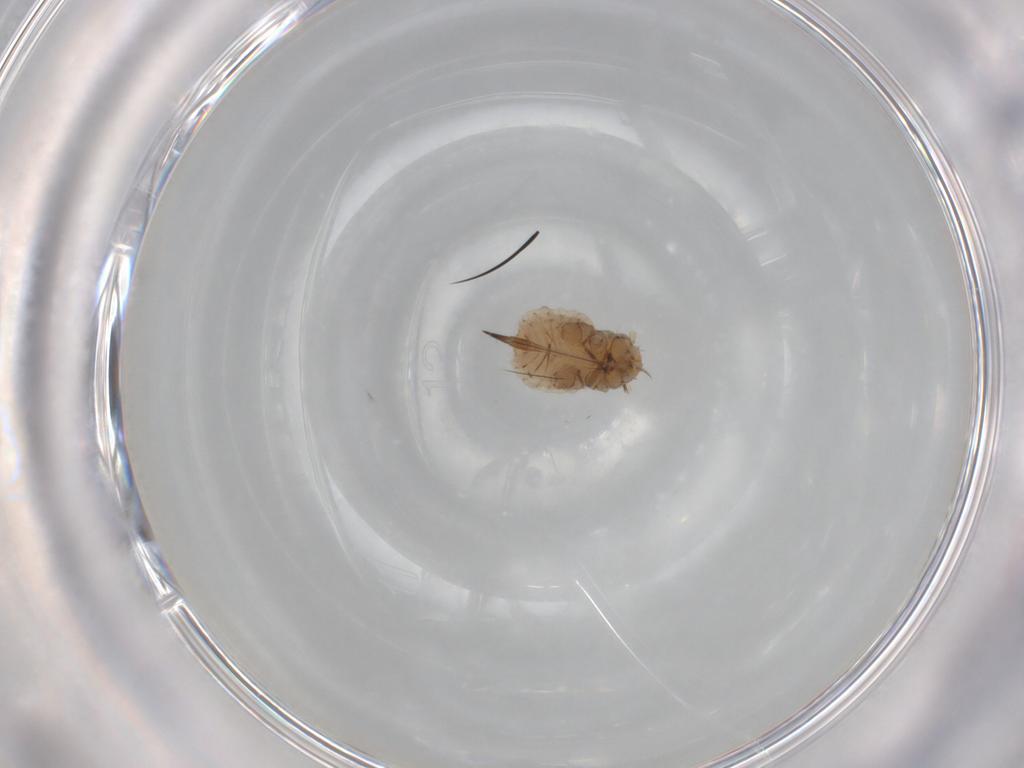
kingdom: Animalia
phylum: Arthropoda
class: Insecta
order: Hemiptera
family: Aphididae
